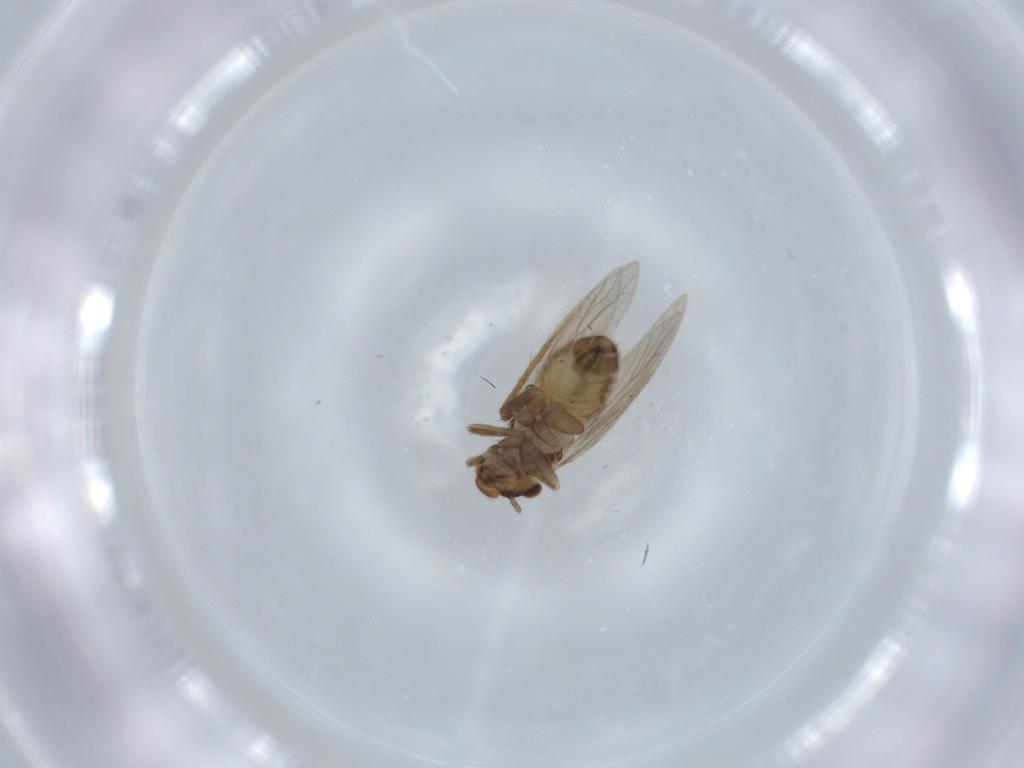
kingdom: Animalia
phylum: Arthropoda
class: Insecta
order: Psocodea
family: Lepidopsocidae
